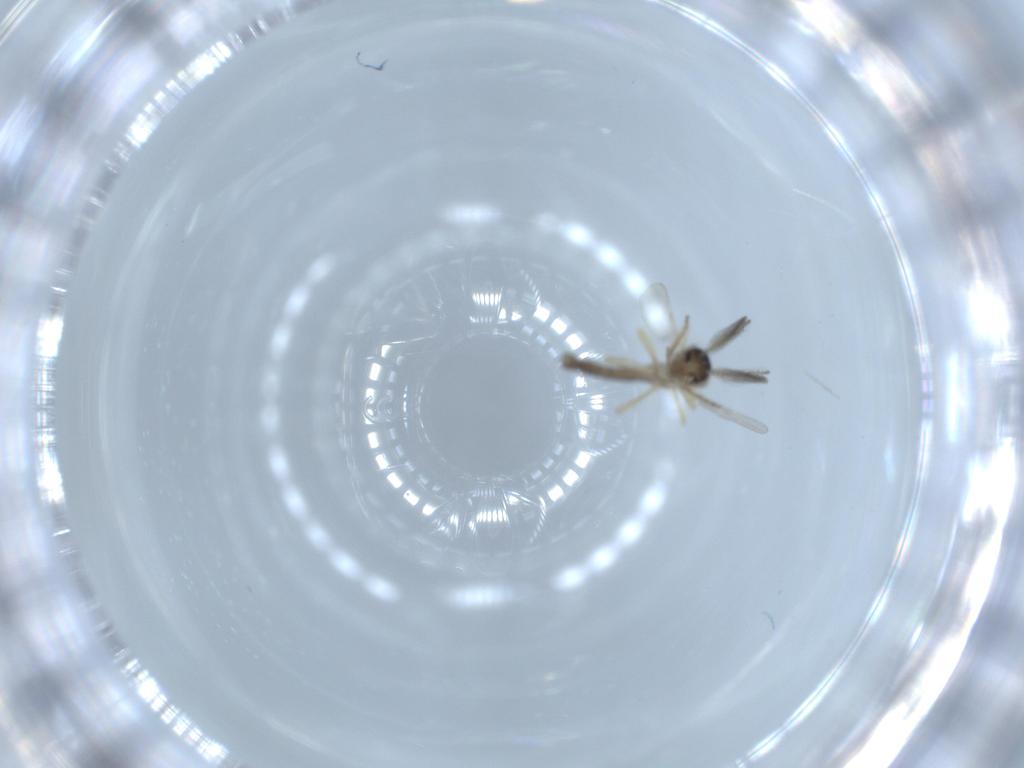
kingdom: Animalia
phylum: Arthropoda
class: Insecta
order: Diptera
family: Ceratopogonidae
